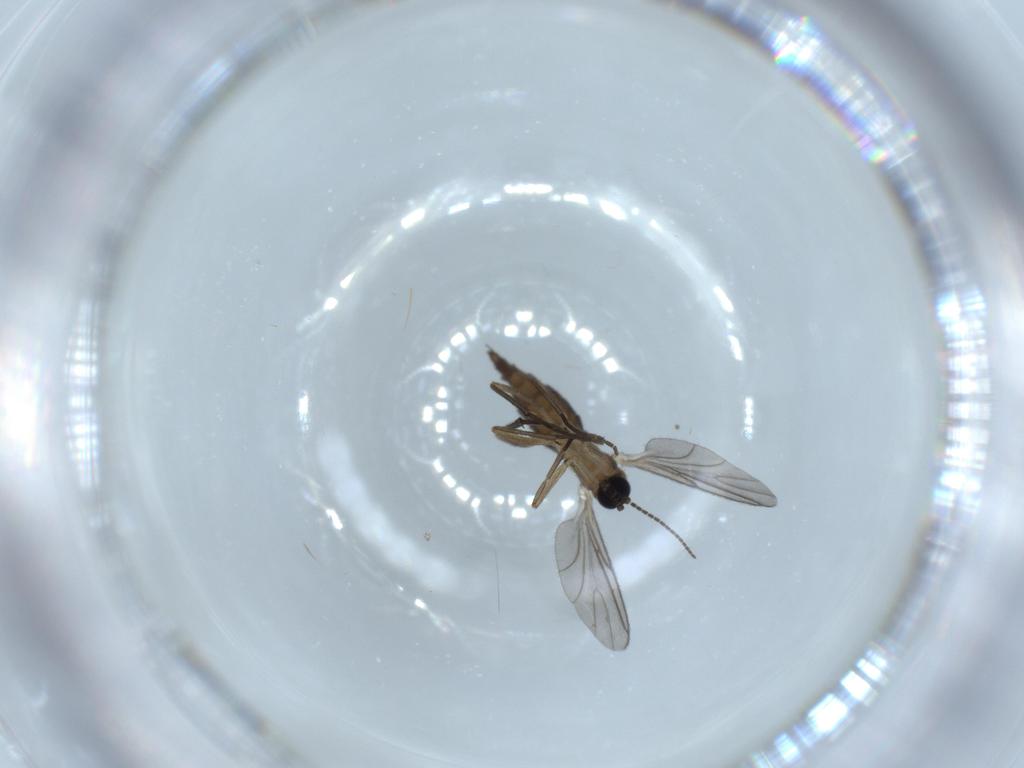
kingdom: Animalia
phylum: Arthropoda
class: Insecta
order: Diptera
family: Sciaridae
